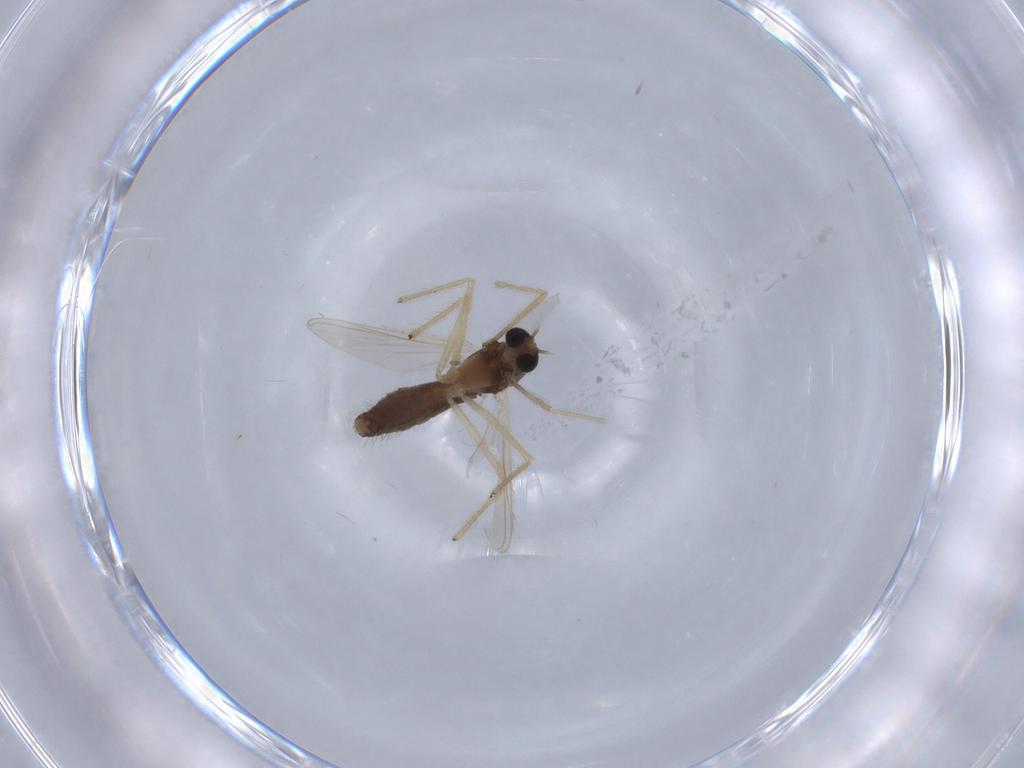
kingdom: Animalia
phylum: Arthropoda
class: Insecta
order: Diptera
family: Chironomidae
